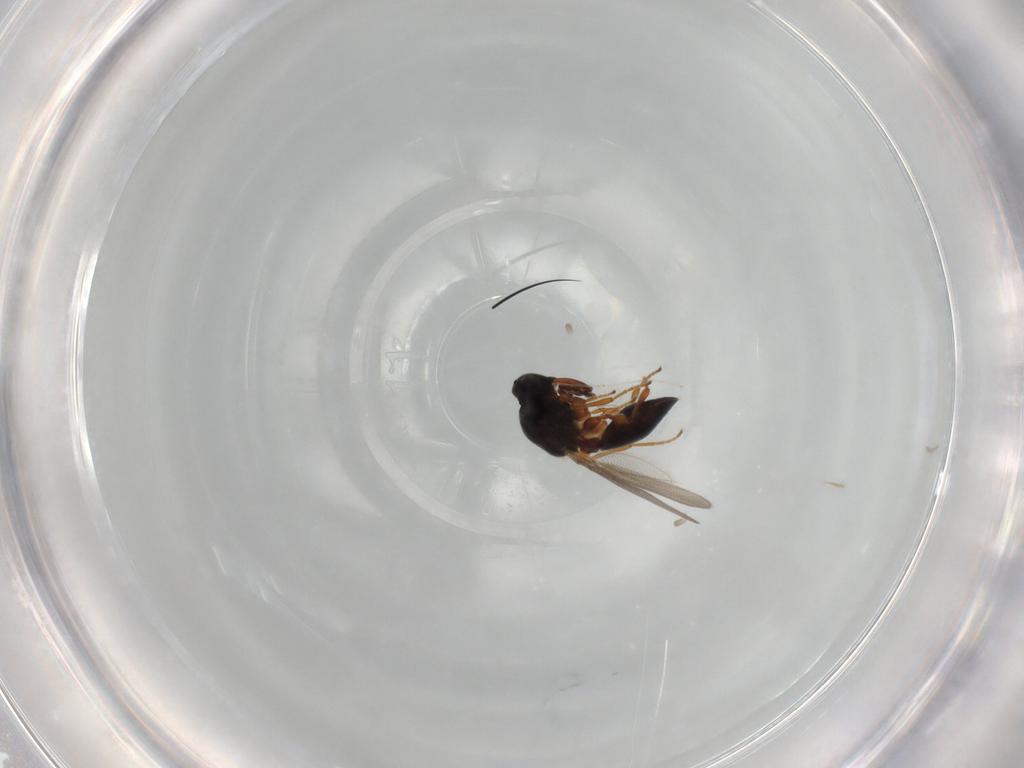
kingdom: Animalia
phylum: Arthropoda
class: Insecta
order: Hymenoptera
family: Platygastridae
